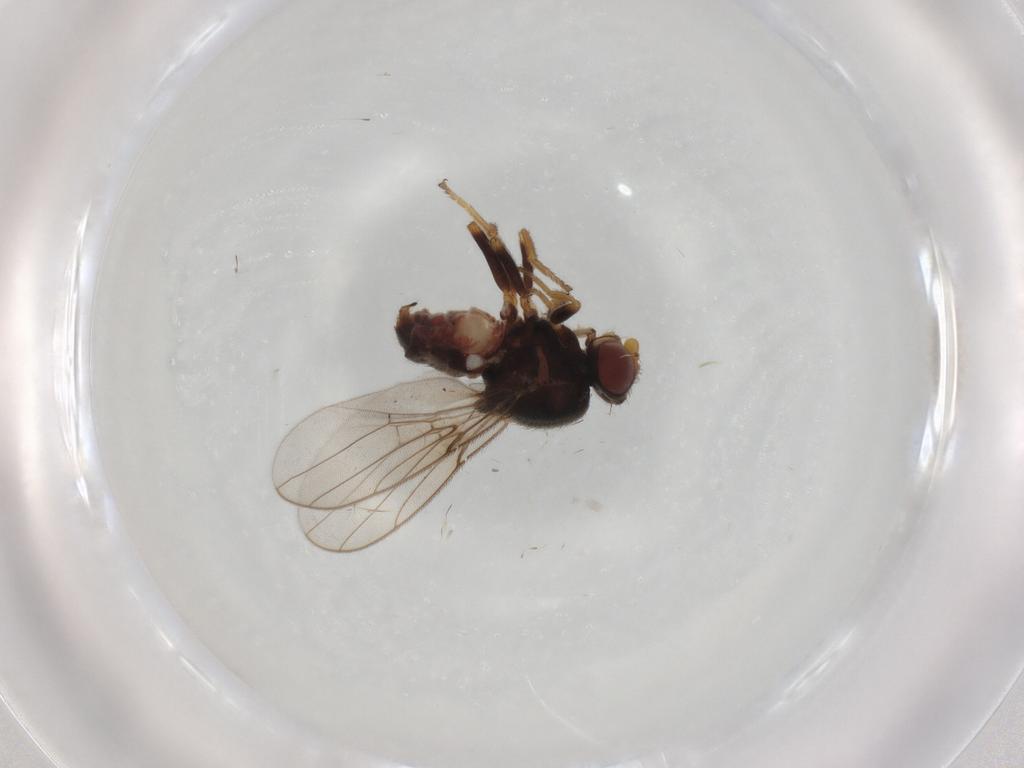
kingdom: Animalia
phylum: Arthropoda
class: Insecta
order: Diptera
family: Chloropidae
